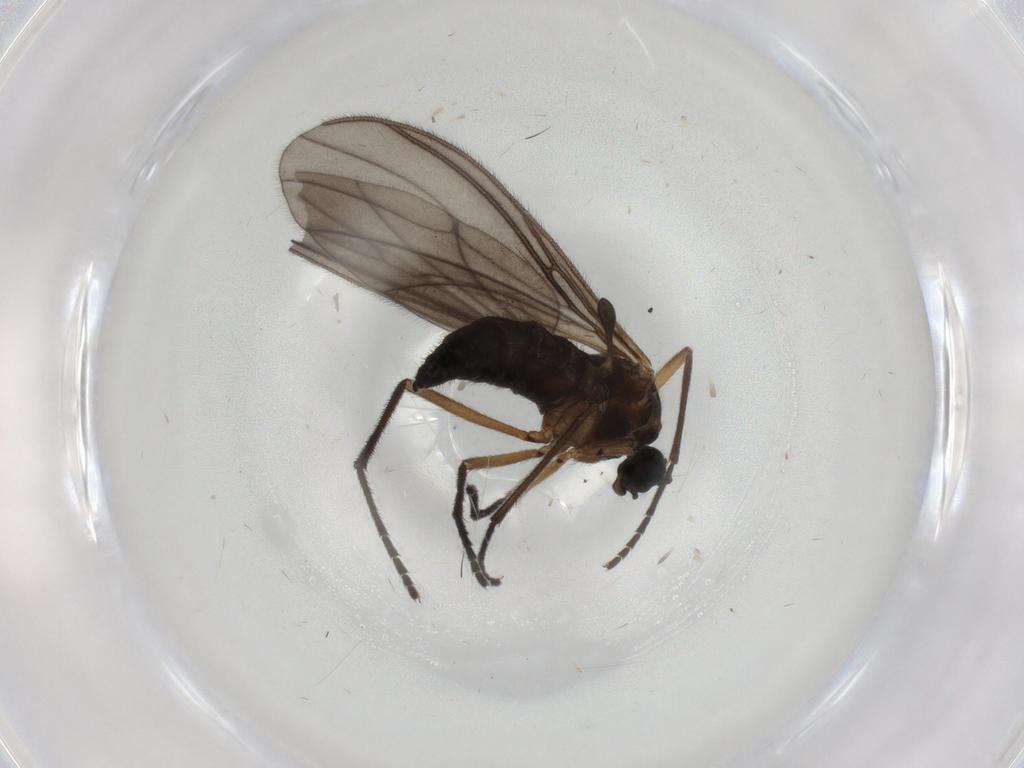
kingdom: Animalia
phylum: Arthropoda
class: Insecta
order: Diptera
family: Sciaridae
